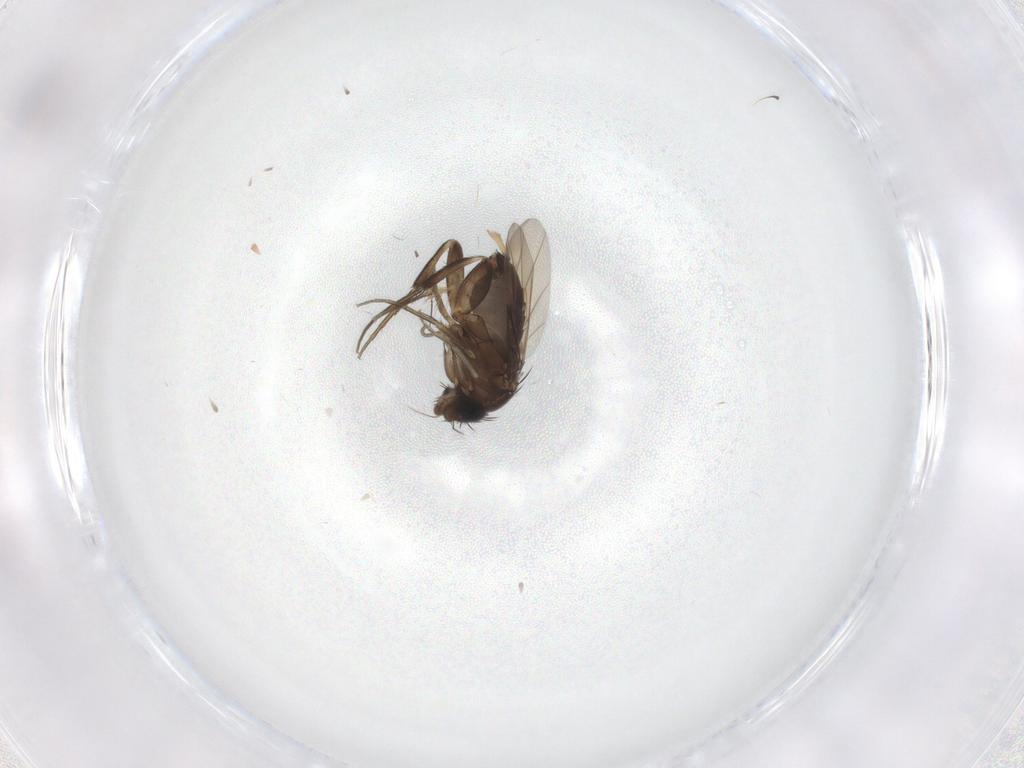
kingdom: Animalia
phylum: Arthropoda
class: Insecta
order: Diptera
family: Phoridae
